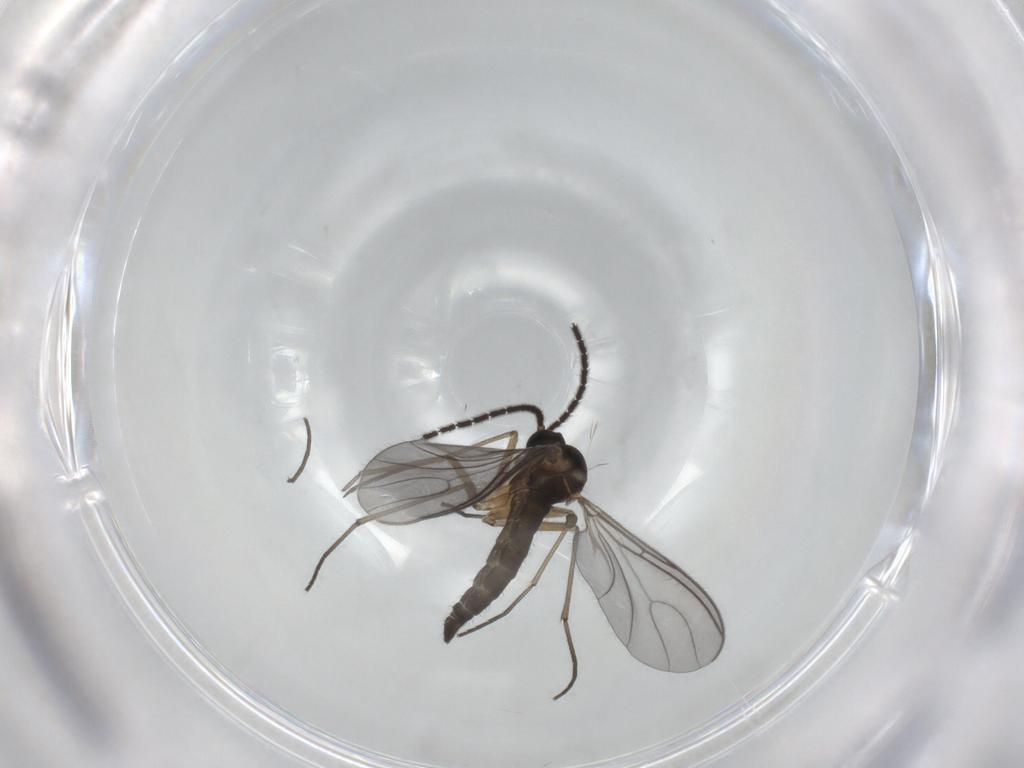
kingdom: Animalia
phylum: Arthropoda
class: Insecta
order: Diptera
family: Sciaridae
